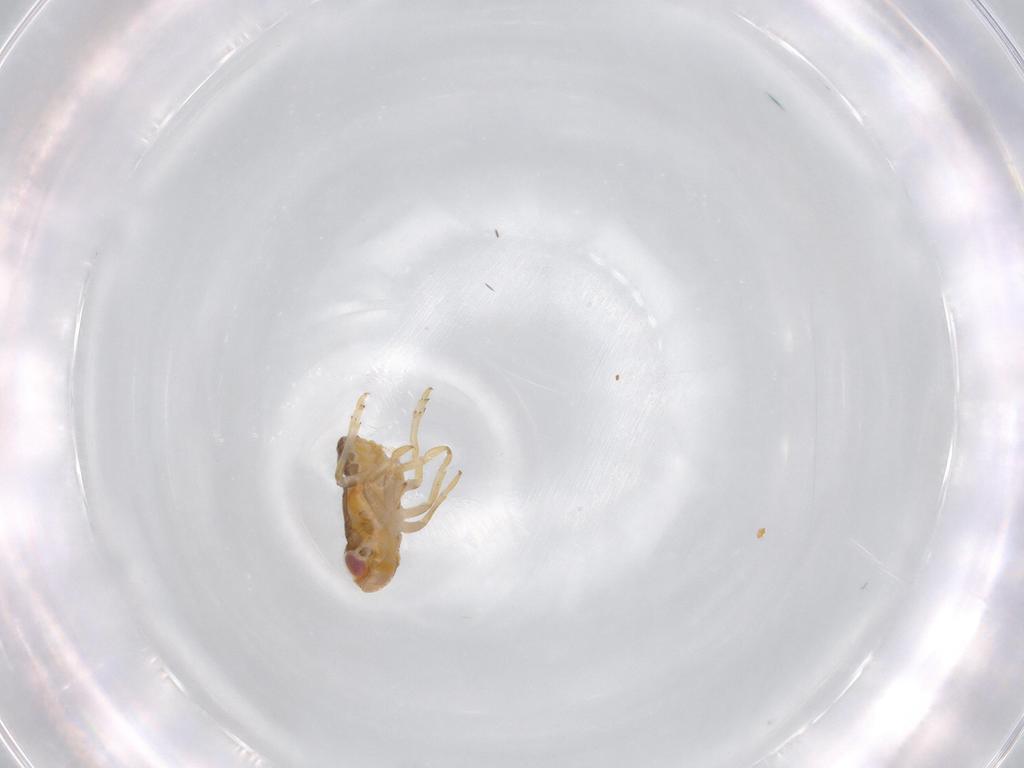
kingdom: Animalia
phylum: Arthropoda
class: Insecta
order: Hemiptera
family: Issidae
